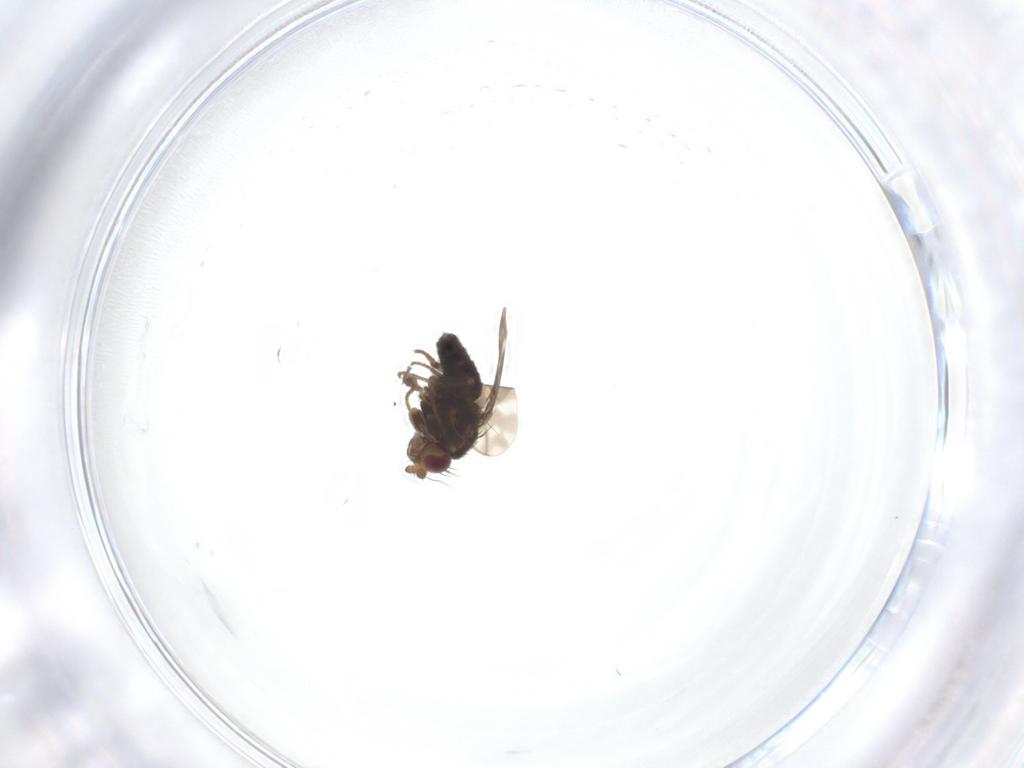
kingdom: Animalia
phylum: Arthropoda
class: Insecta
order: Diptera
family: Sphaeroceridae
